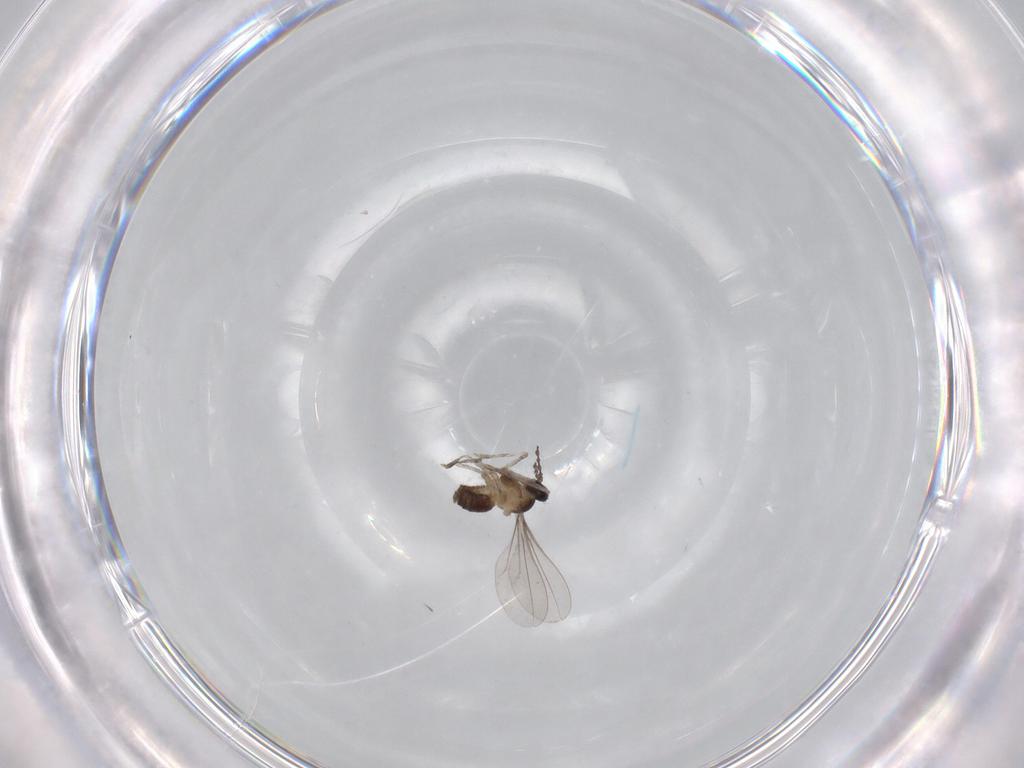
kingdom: Animalia
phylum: Arthropoda
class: Insecta
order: Diptera
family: Cecidomyiidae
